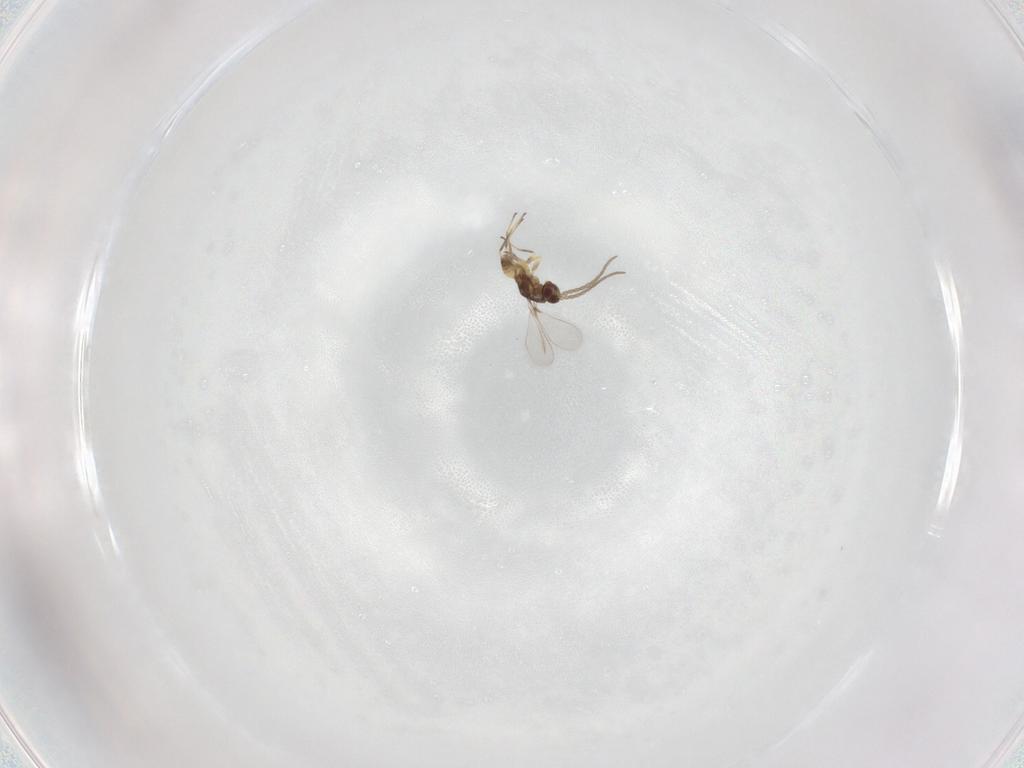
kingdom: Animalia
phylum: Arthropoda
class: Insecta
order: Hymenoptera
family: Mymaridae
